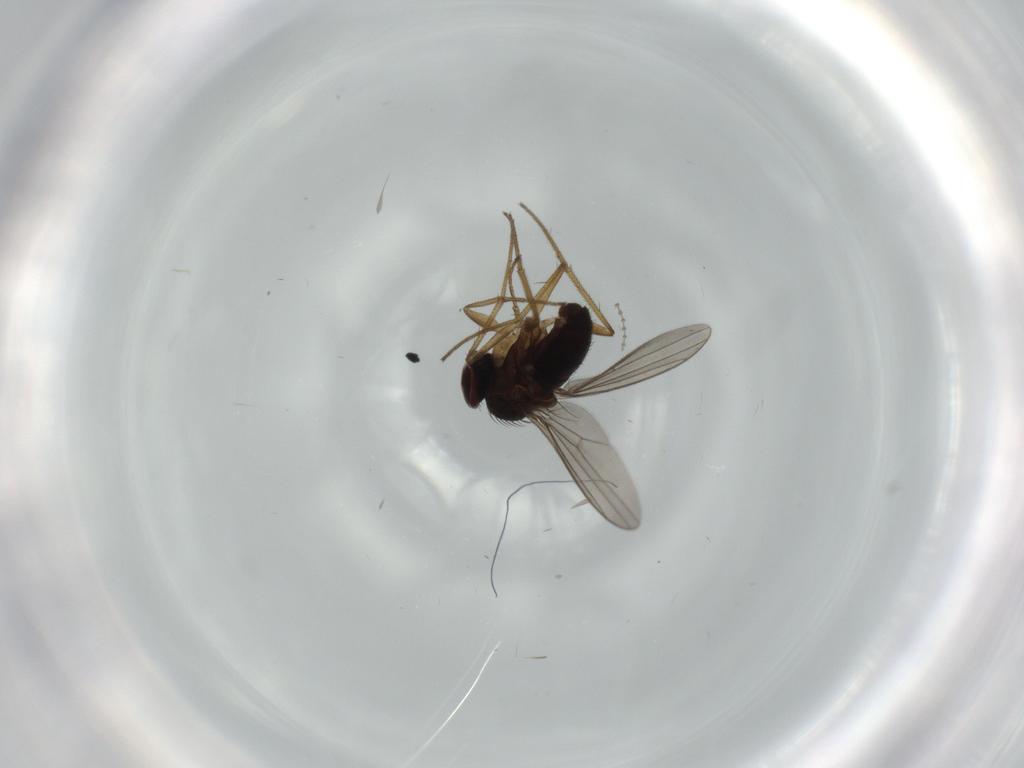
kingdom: Animalia
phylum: Arthropoda
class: Insecta
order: Diptera
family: Dolichopodidae
